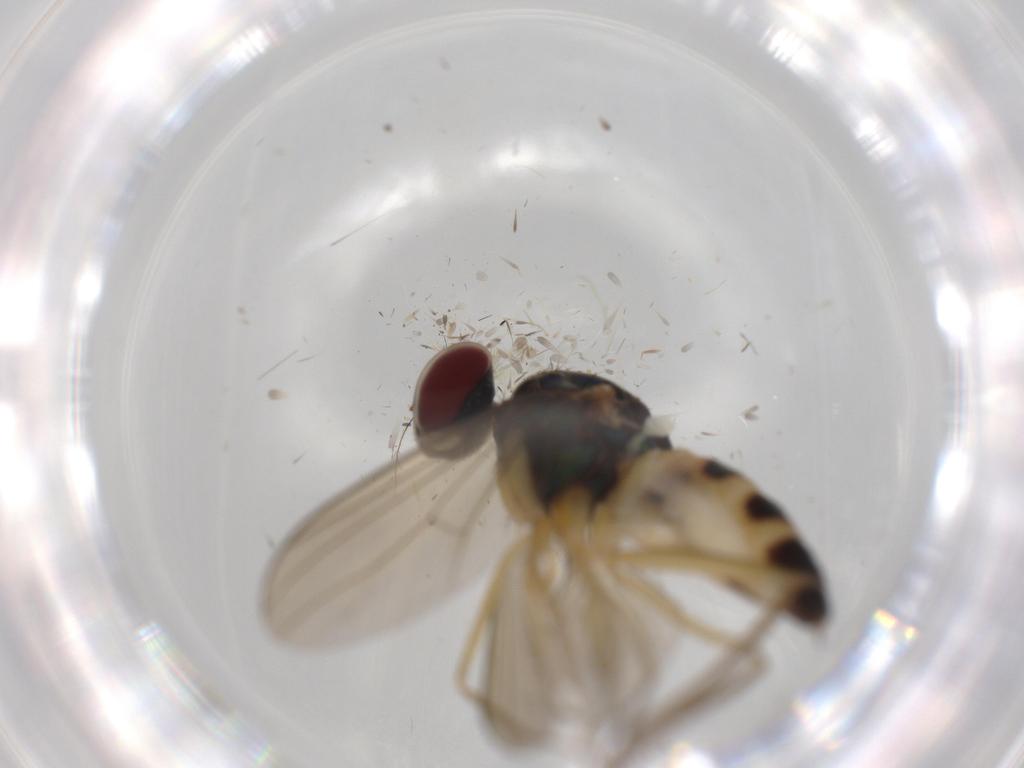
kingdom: Animalia
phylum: Arthropoda
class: Insecta
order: Diptera
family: Dolichopodidae
